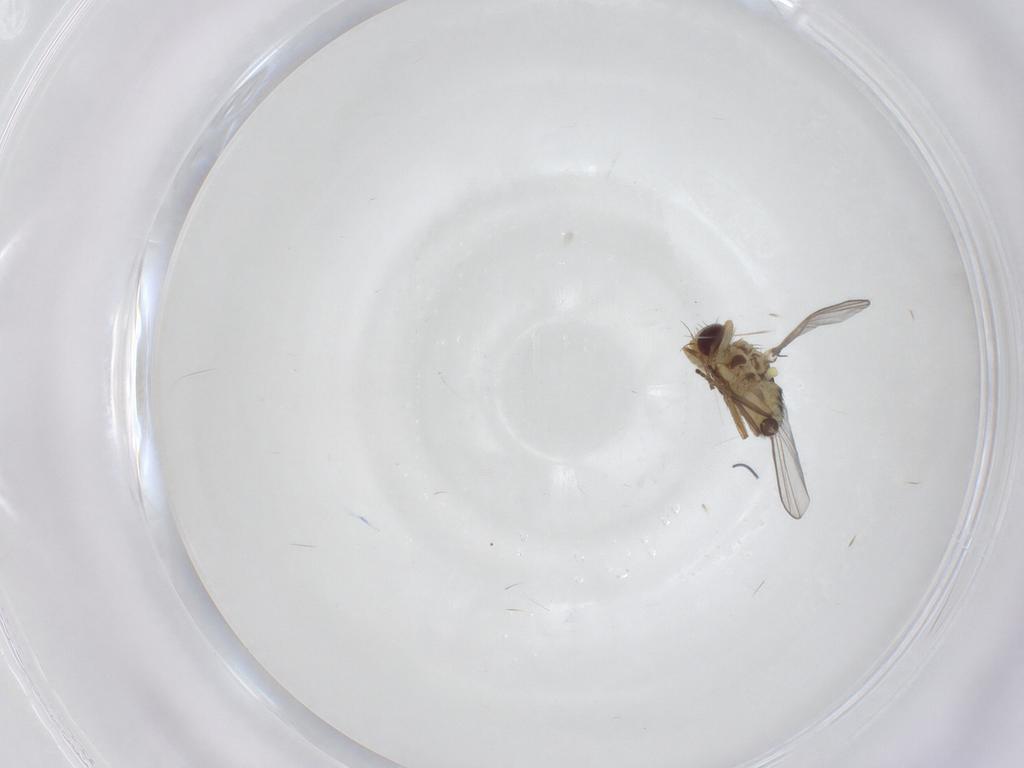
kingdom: Animalia
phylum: Arthropoda
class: Insecta
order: Diptera
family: Agromyzidae
